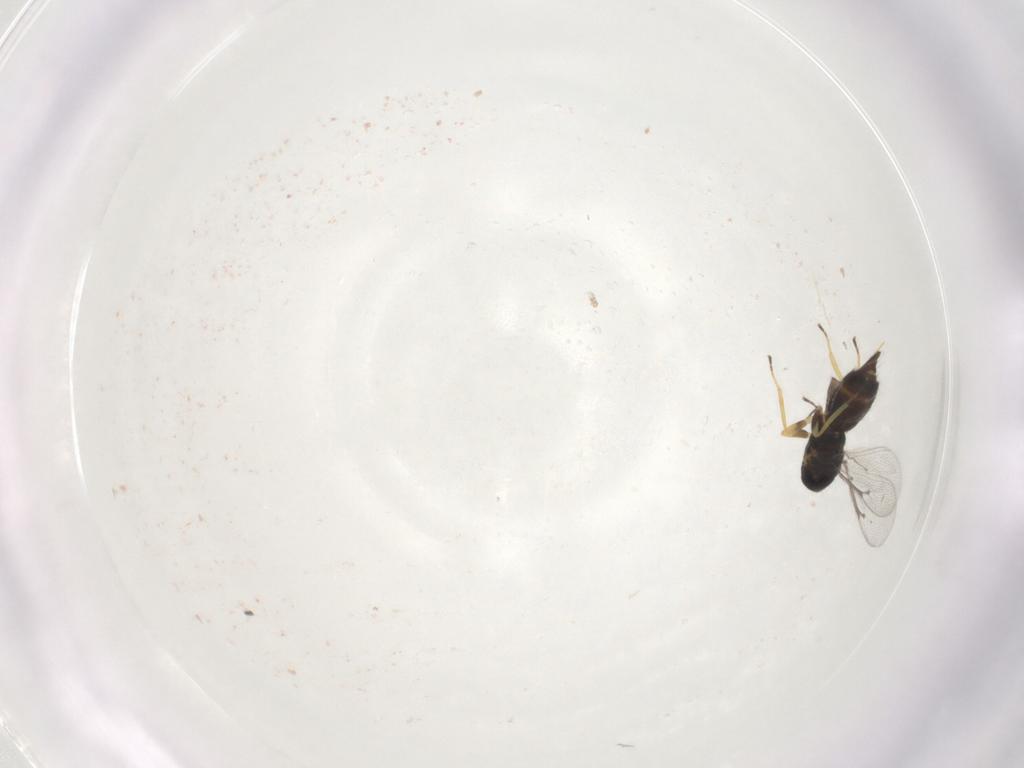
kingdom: Animalia
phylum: Arthropoda
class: Insecta
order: Hymenoptera
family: Eulophidae
